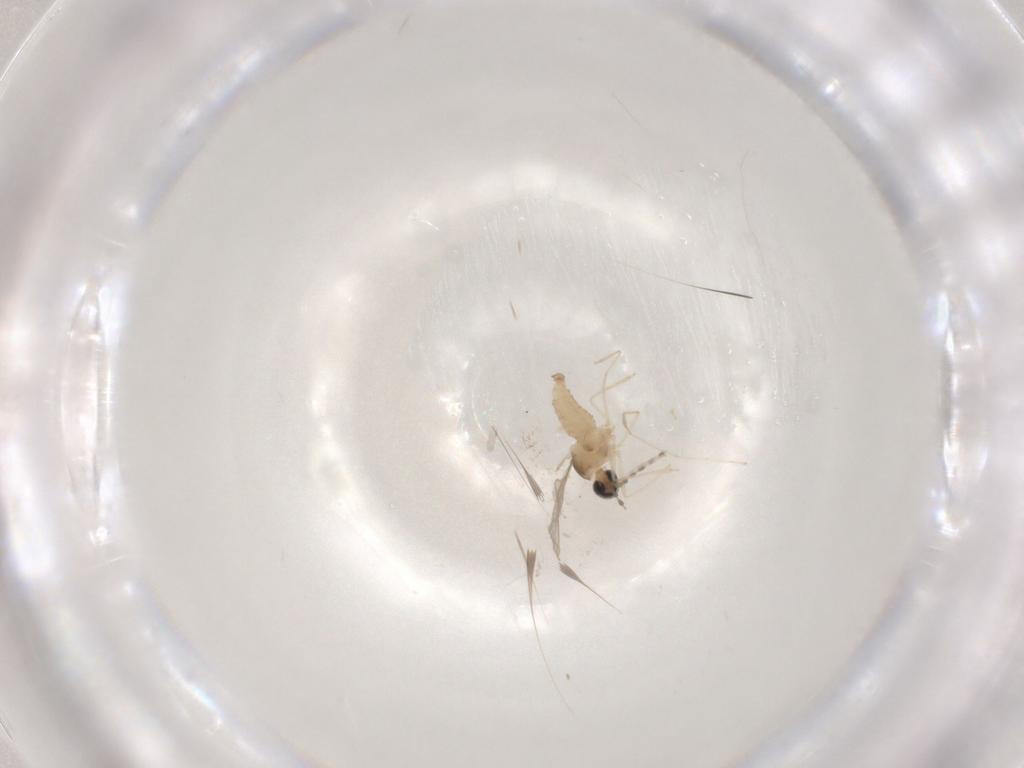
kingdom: Animalia
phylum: Arthropoda
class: Insecta
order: Diptera
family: Cecidomyiidae
